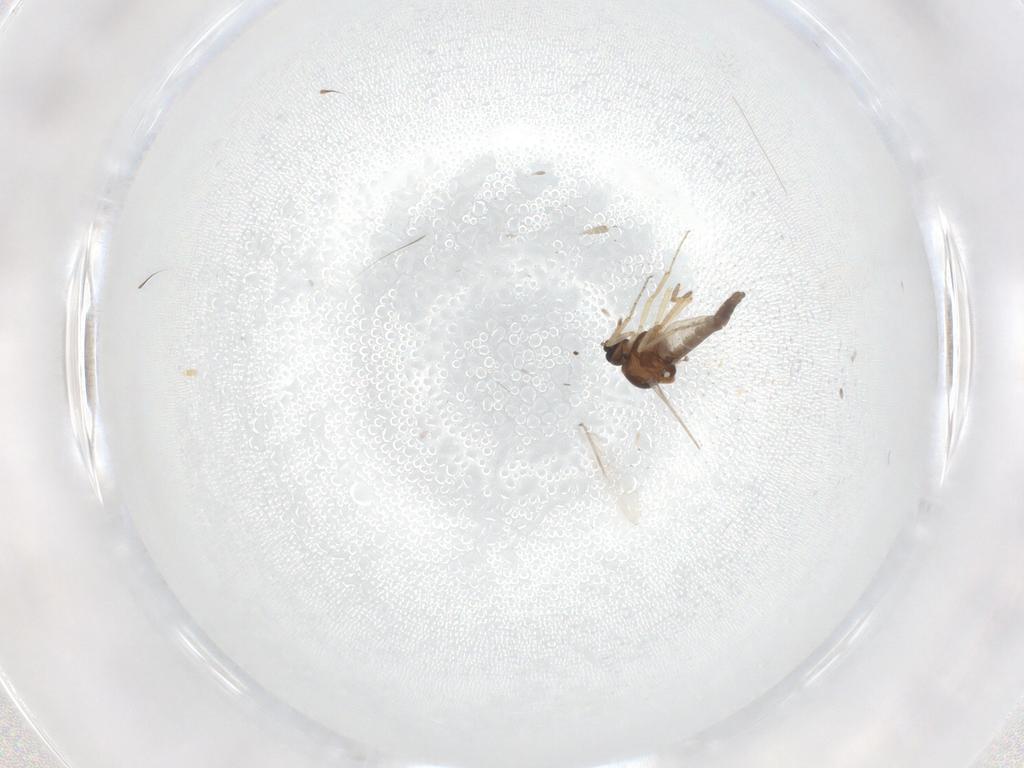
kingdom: Animalia
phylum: Arthropoda
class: Insecta
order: Diptera
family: Ceratopogonidae
